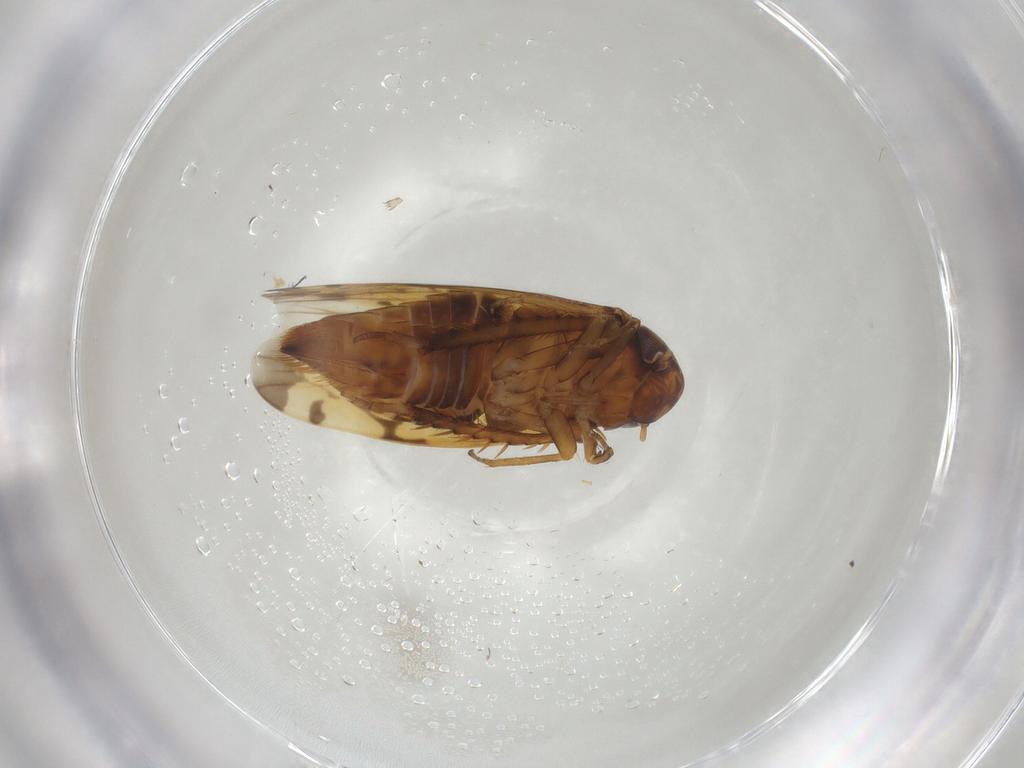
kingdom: Animalia
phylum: Arthropoda
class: Insecta
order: Hemiptera
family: Cicadellidae
